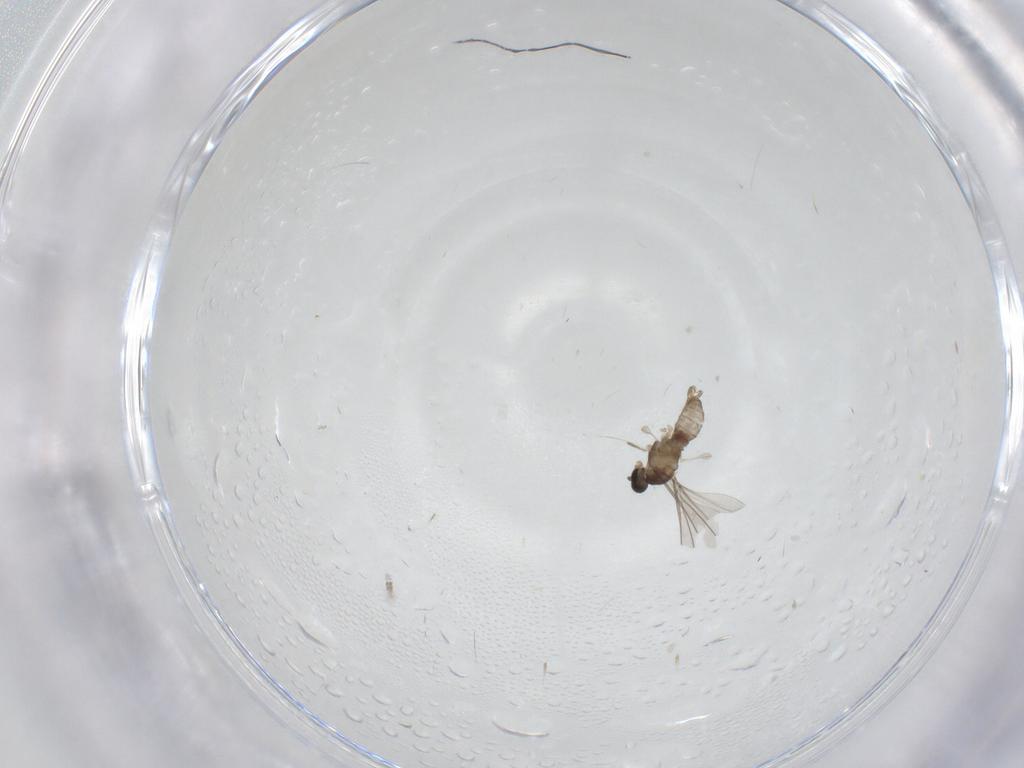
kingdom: Animalia
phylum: Arthropoda
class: Insecta
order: Diptera
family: Cecidomyiidae
